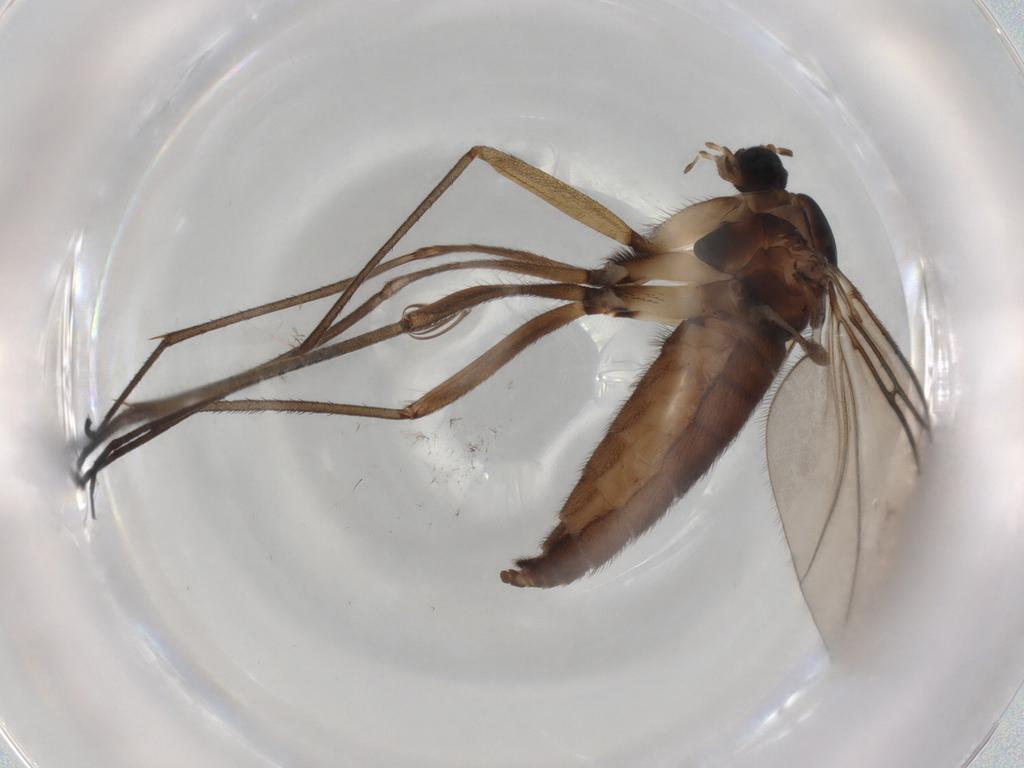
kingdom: Animalia
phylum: Arthropoda
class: Insecta
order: Diptera
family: Sciaridae
